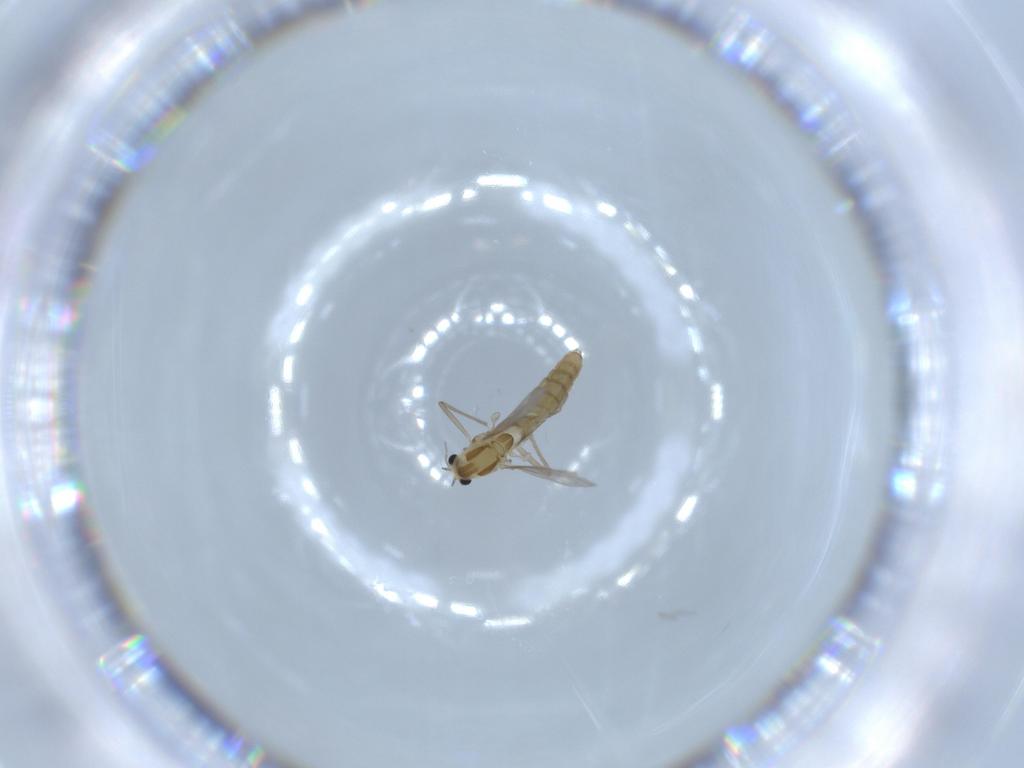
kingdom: Animalia
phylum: Arthropoda
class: Insecta
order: Diptera
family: Chironomidae
